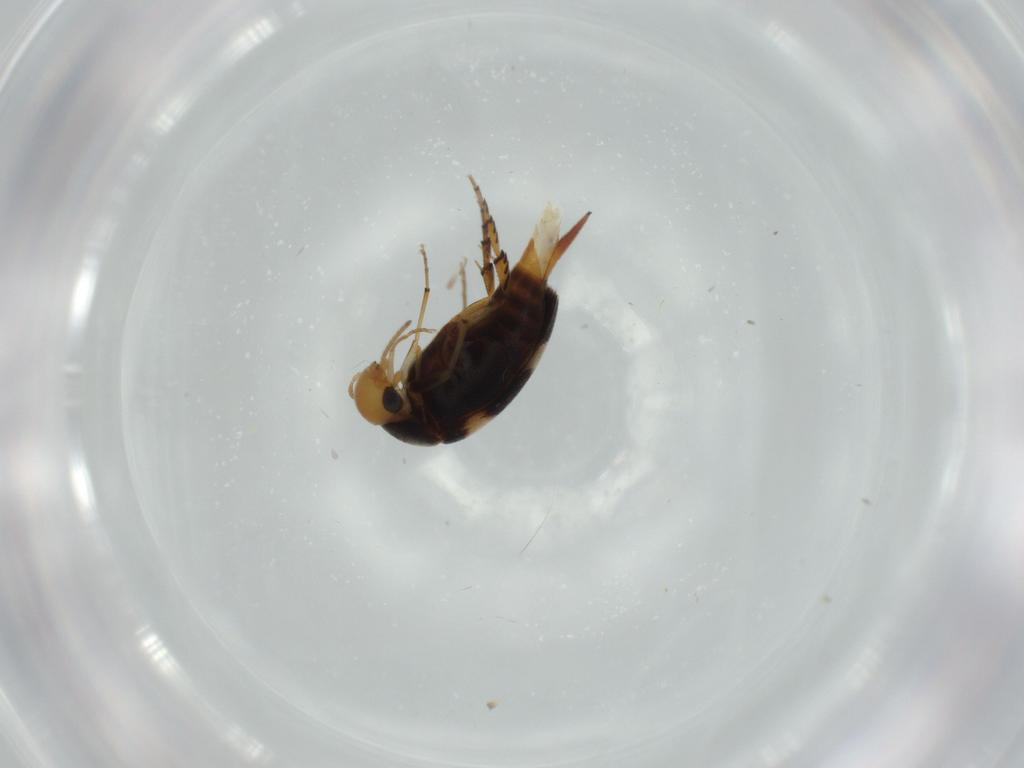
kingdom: Animalia
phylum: Arthropoda
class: Insecta
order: Coleoptera
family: Mordellidae
